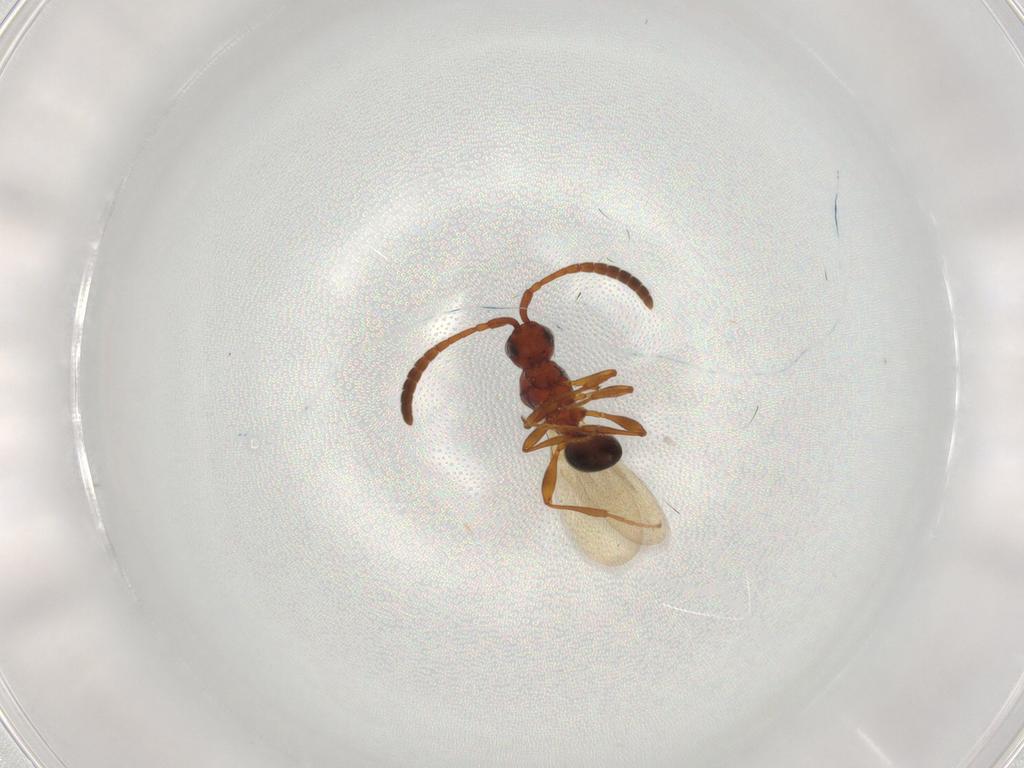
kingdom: Animalia
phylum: Arthropoda
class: Insecta
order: Hymenoptera
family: Diapriidae
